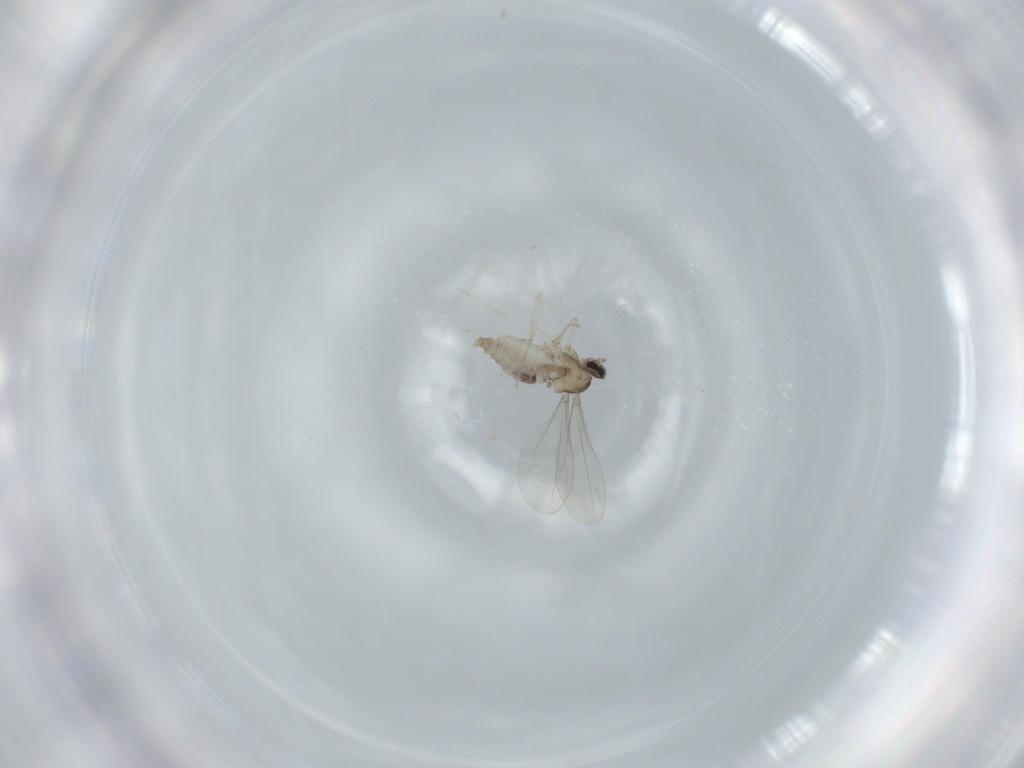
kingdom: Animalia
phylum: Arthropoda
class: Insecta
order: Diptera
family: Cecidomyiidae
